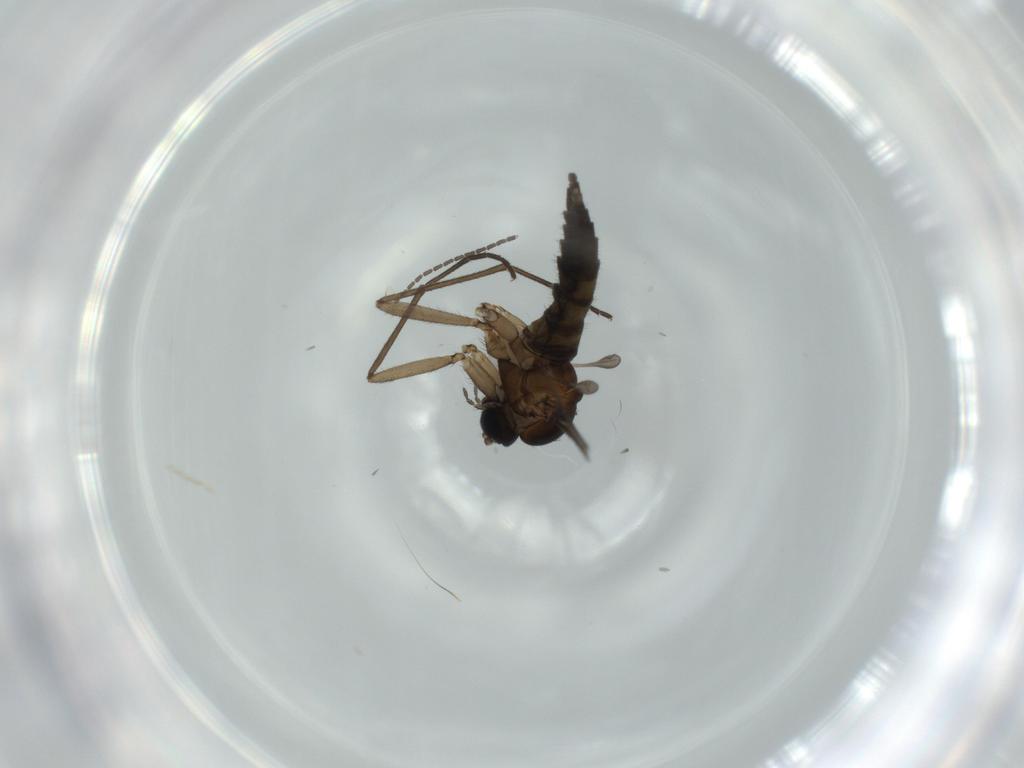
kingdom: Animalia
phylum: Arthropoda
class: Insecta
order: Diptera
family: Sciaridae
